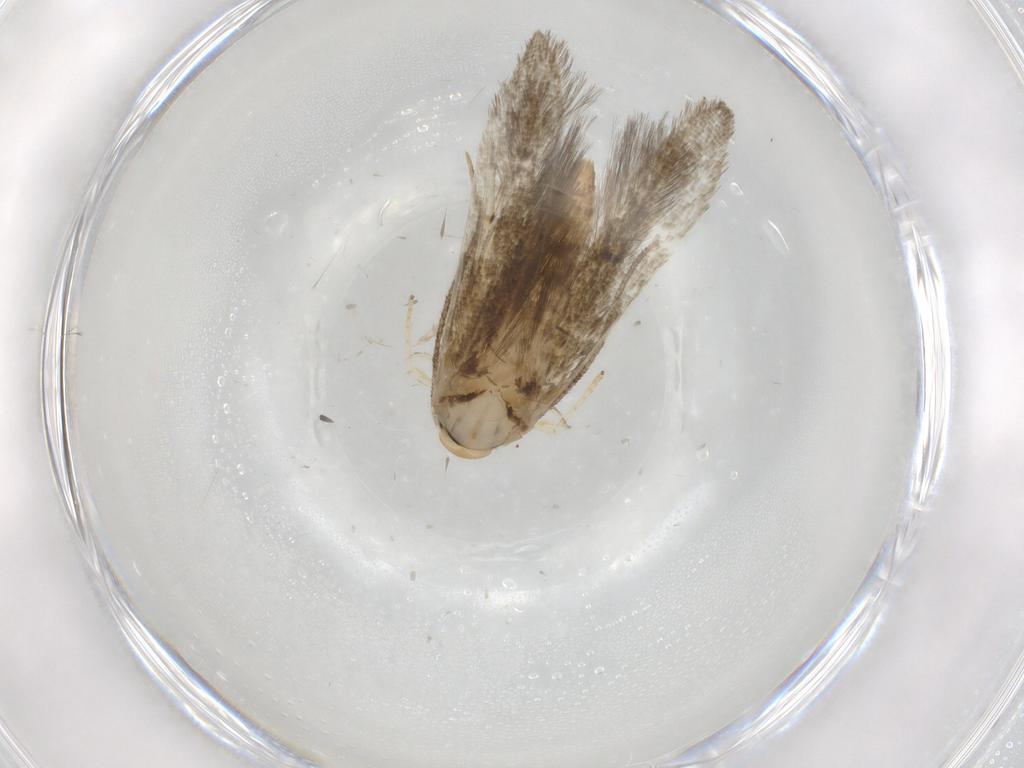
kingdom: Animalia
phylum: Arthropoda
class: Insecta
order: Lepidoptera
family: Stathmopodidae
